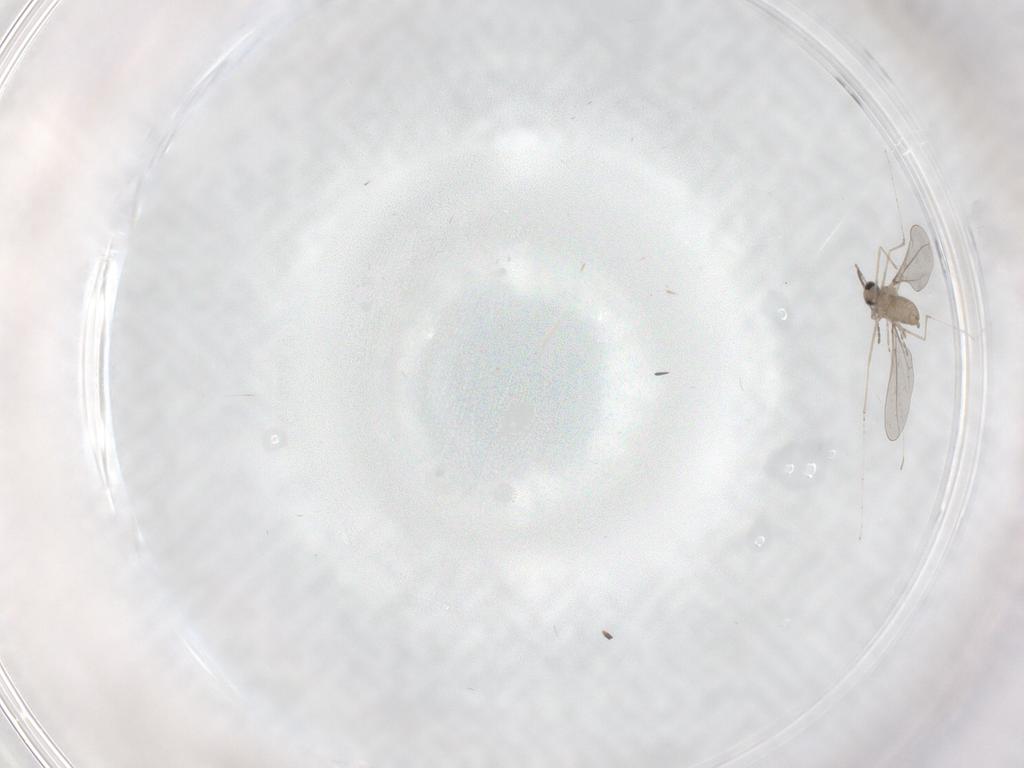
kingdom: Animalia
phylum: Arthropoda
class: Insecta
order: Diptera
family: Cecidomyiidae
